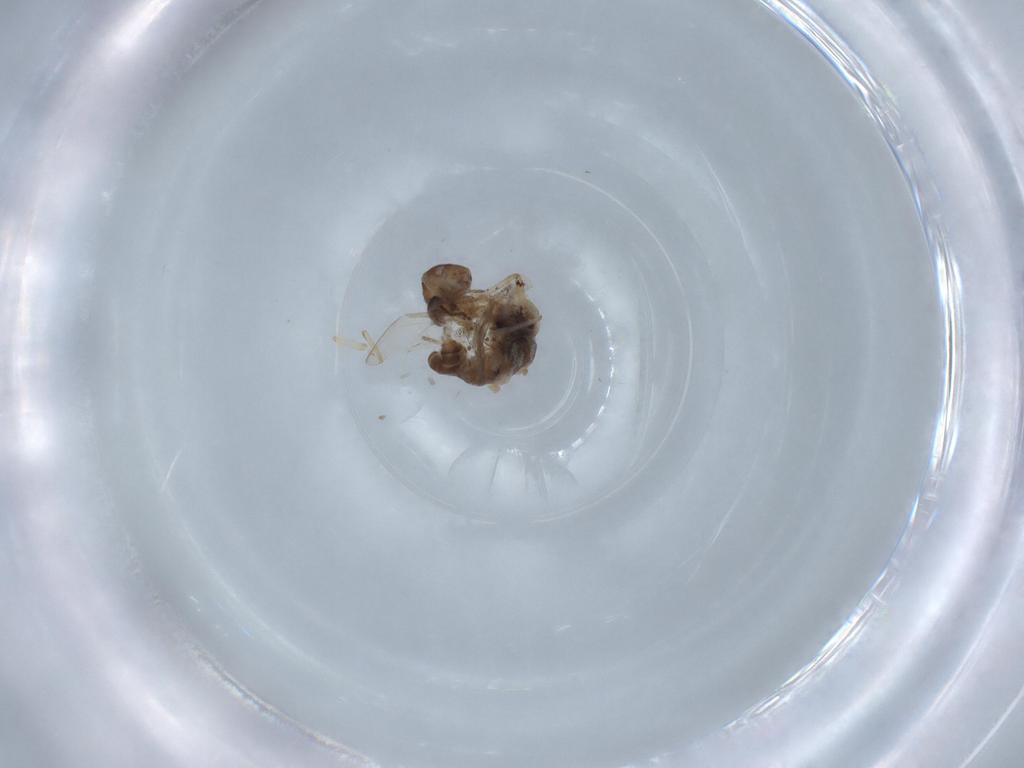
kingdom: Animalia
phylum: Arthropoda
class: Insecta
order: Diptera
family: Ceratopogonidae
